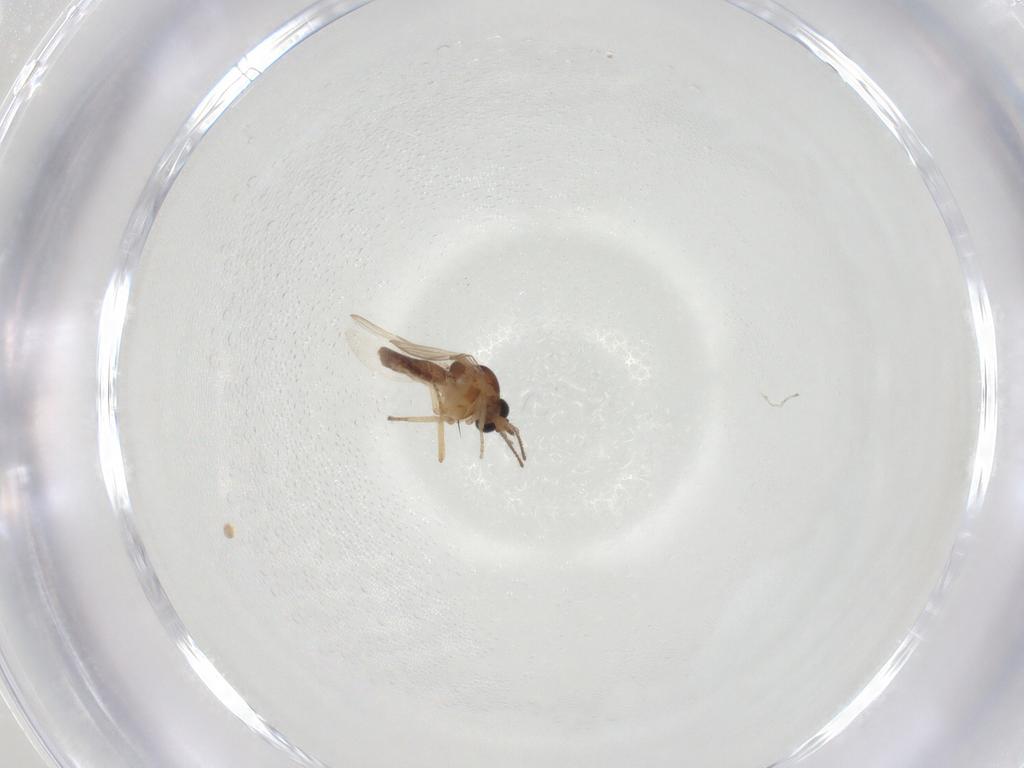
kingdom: Animalia
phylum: Arthropoda
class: Insecta
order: Diptera
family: Ceratopogonidae
